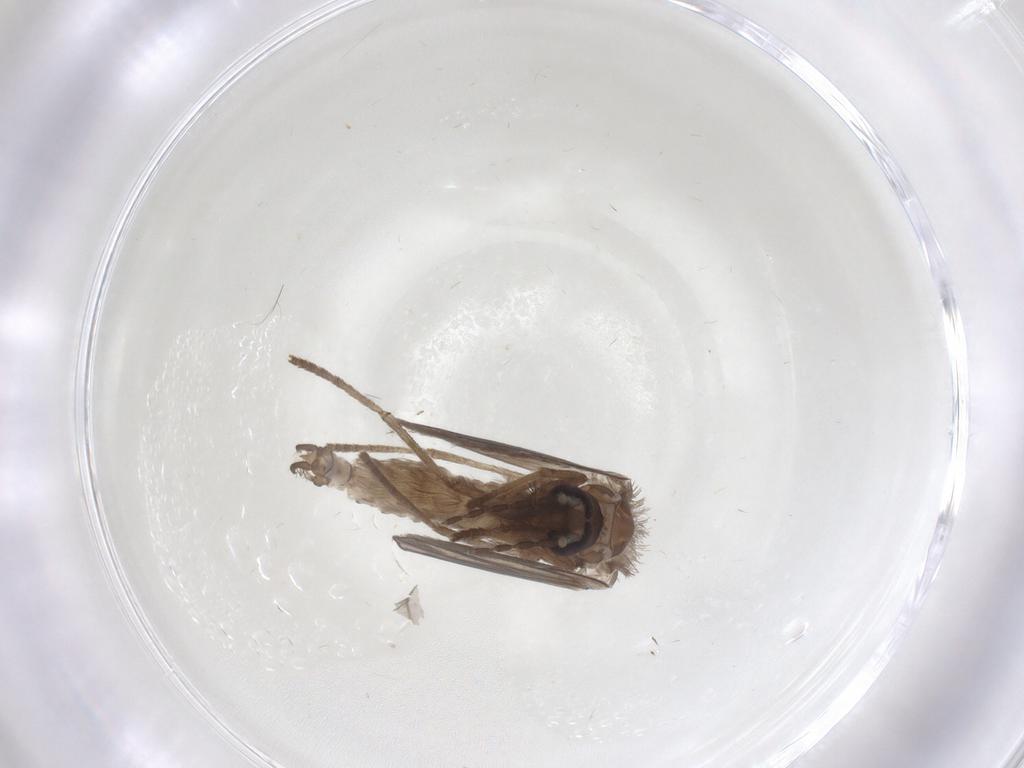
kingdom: Animalia
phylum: Arthropoda
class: Insecta
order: Diptera
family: Psychodidae
